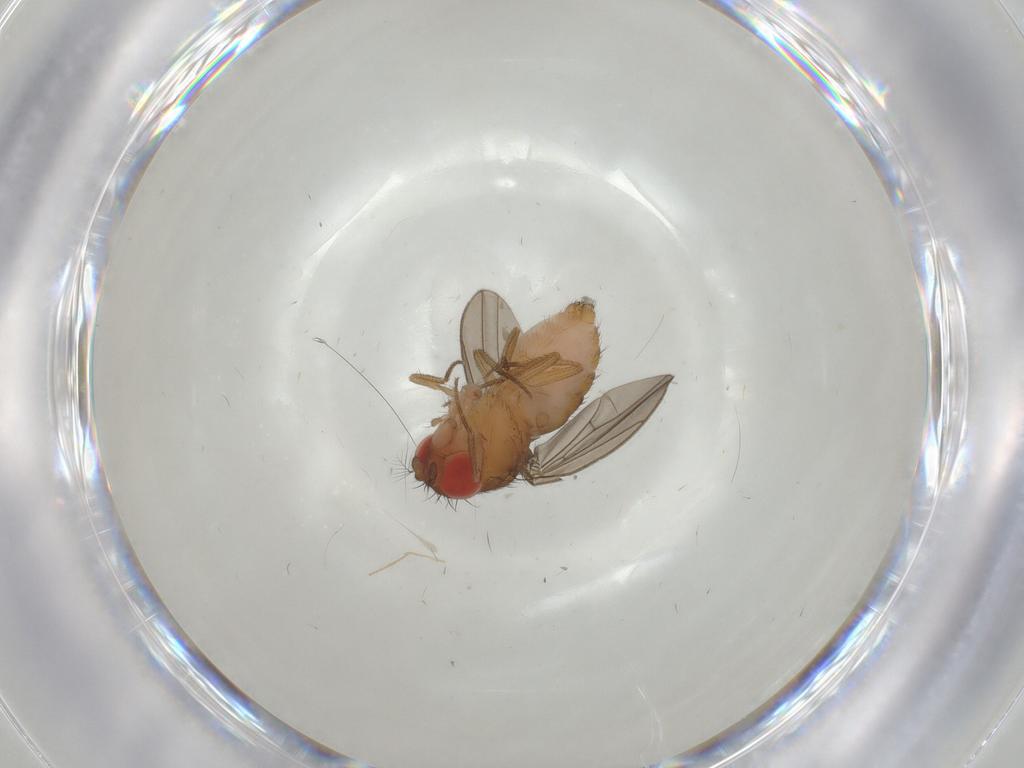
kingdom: Animalia
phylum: Arthropoda
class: Insecta
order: Diptera
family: Drosophilidae
